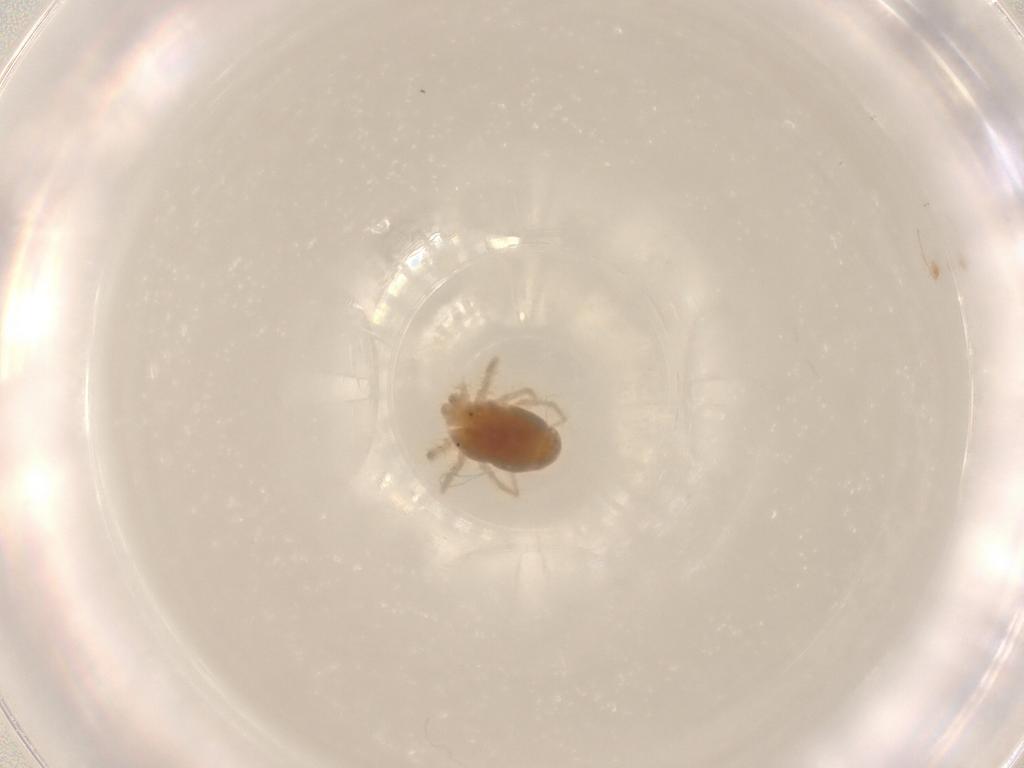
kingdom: Animalia
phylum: Arthropoda
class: Arachnida
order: Trombidiformes
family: Anystidae
